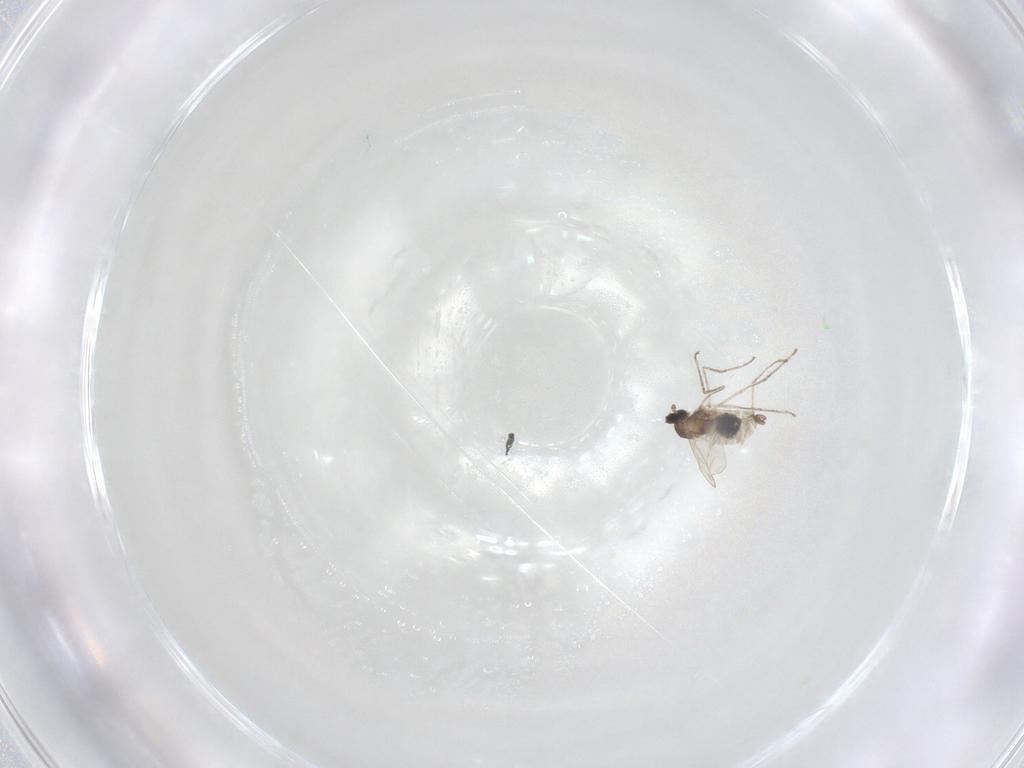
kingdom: Animalia
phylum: Arthropoda
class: Insecta
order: Diptera
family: Cecidomyiidae
